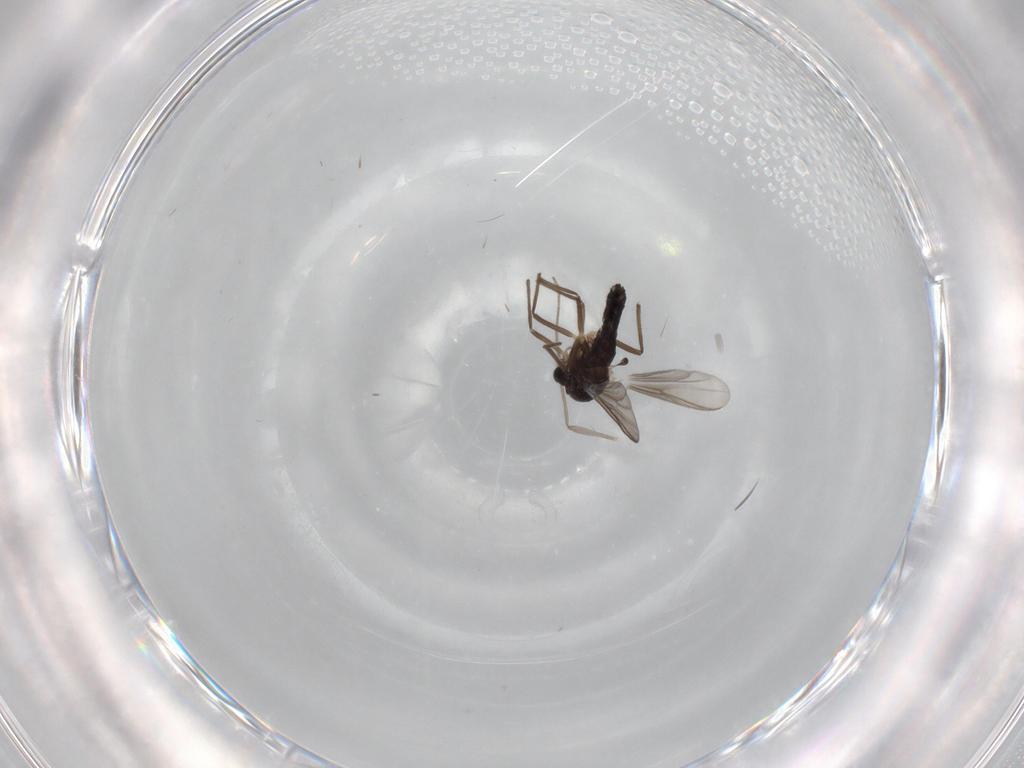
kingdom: Animalia
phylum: Arthropoda
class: Insecta
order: Diptera
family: Chironomidae
